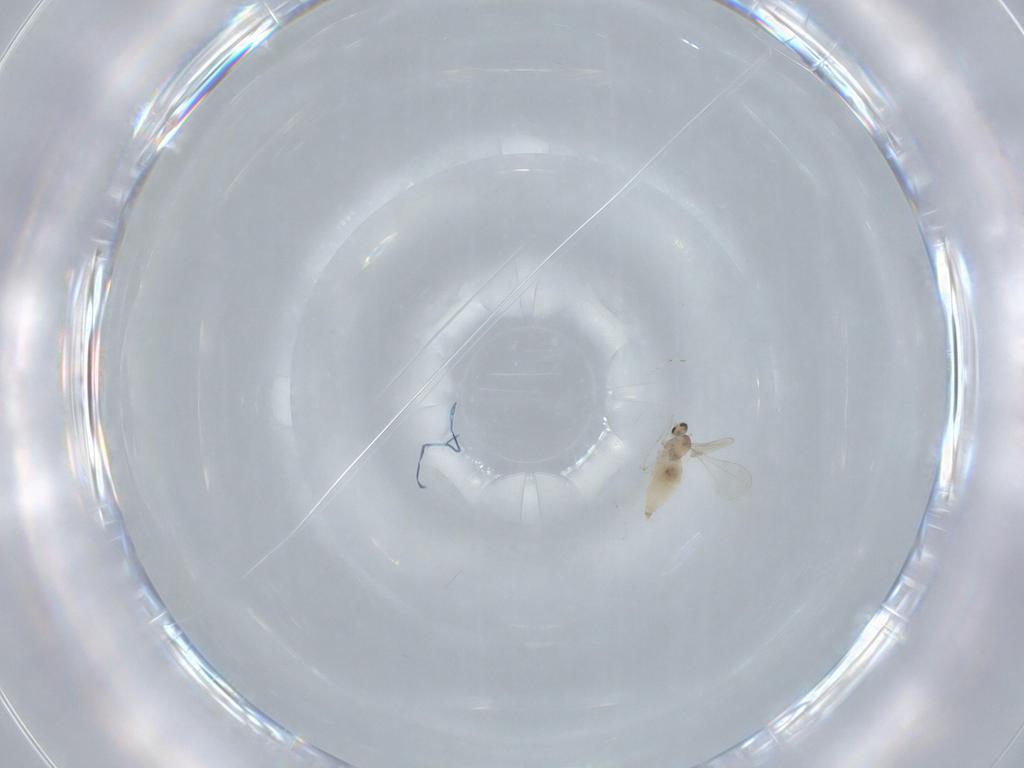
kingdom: Animalia
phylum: Arthropoda
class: Insecta
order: Diptera
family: Cecidomyiidae
